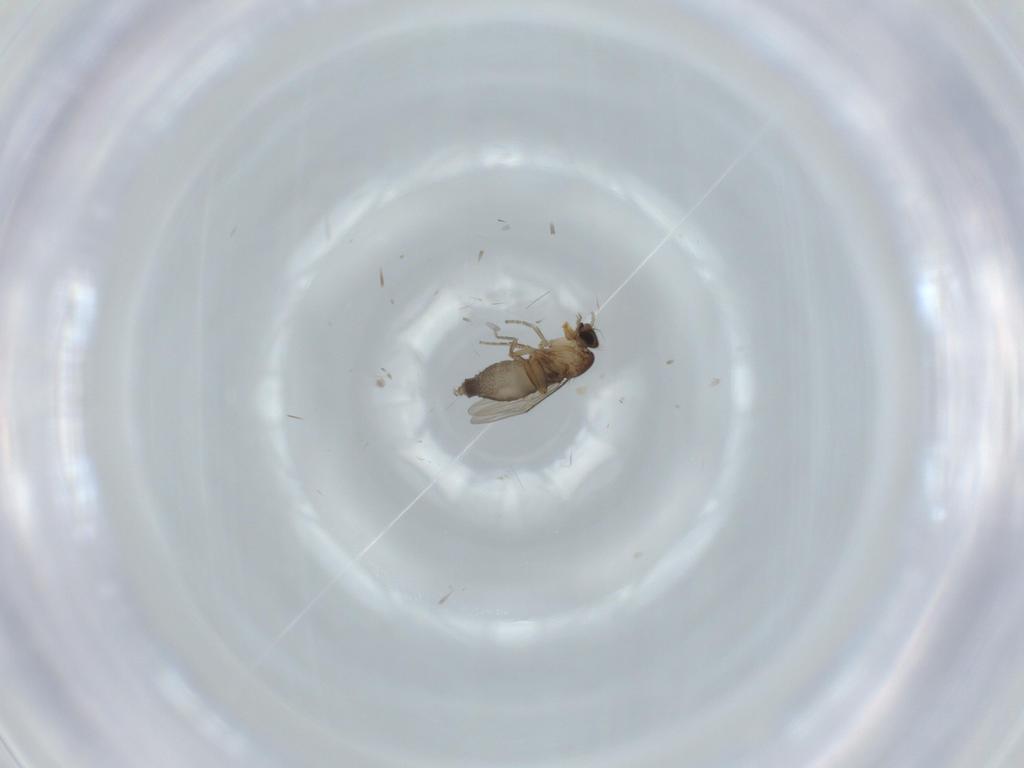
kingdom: Animalia
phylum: Arthropoda
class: Insecta
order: Diptera
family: Phoridae
